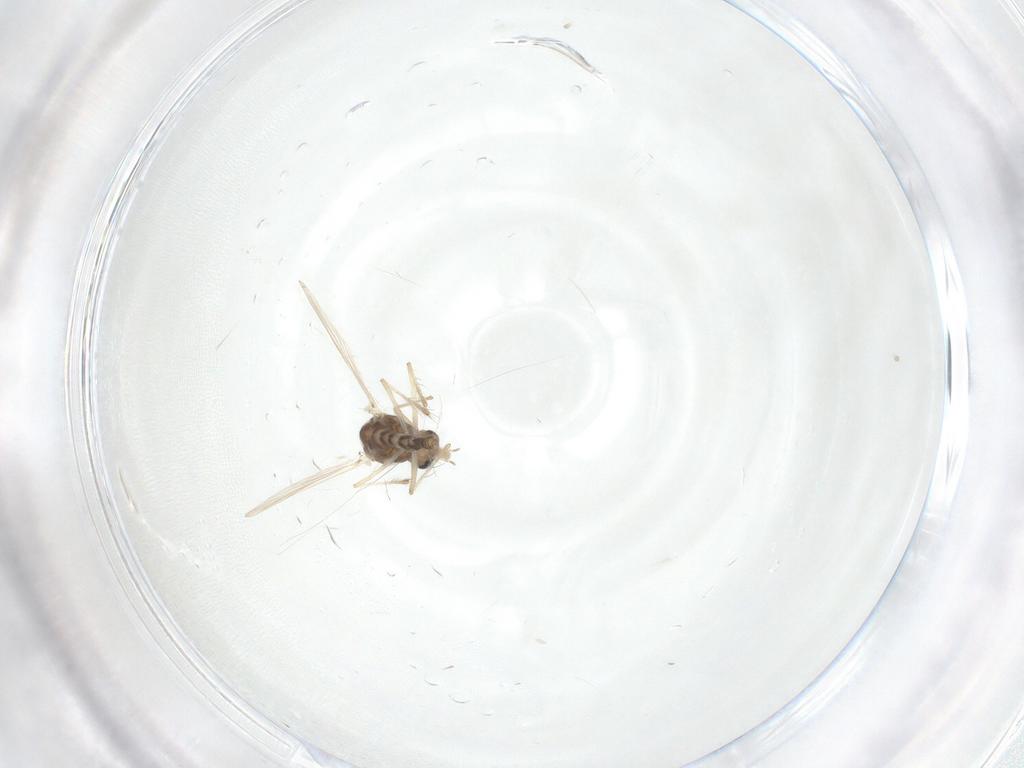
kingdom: Animalia
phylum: Arthropoda
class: Insecta
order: Diptera
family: Chironomidae
